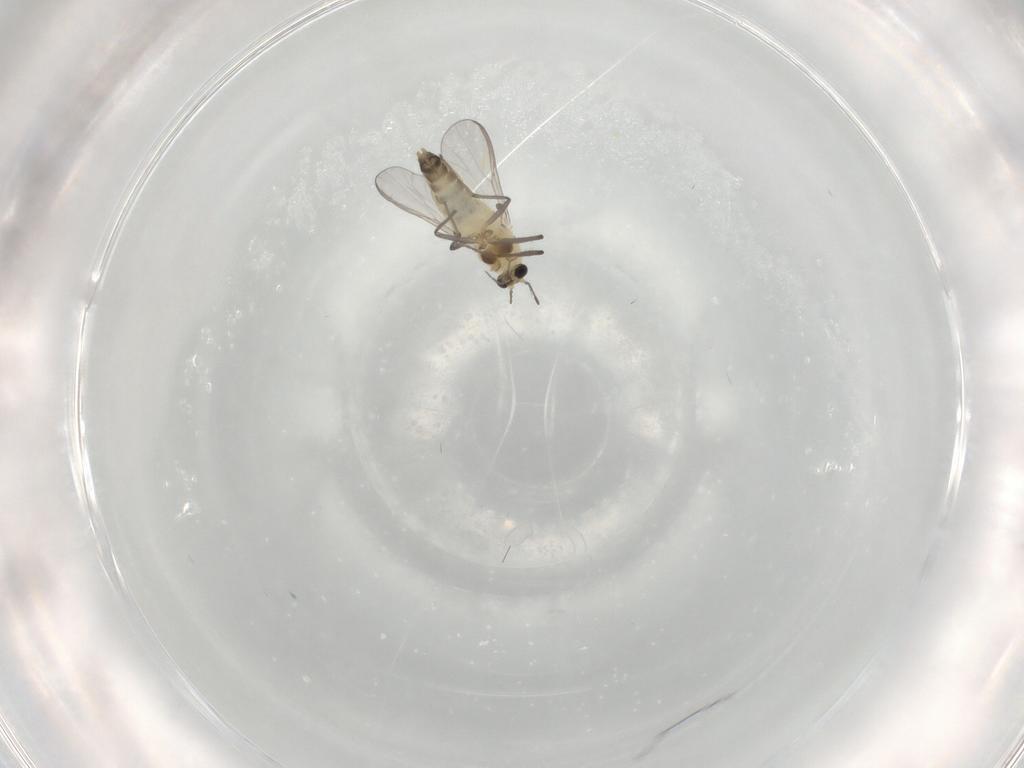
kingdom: Animalia
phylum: Arthropoda
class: Insecta
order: Diptera
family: Chironomidae
